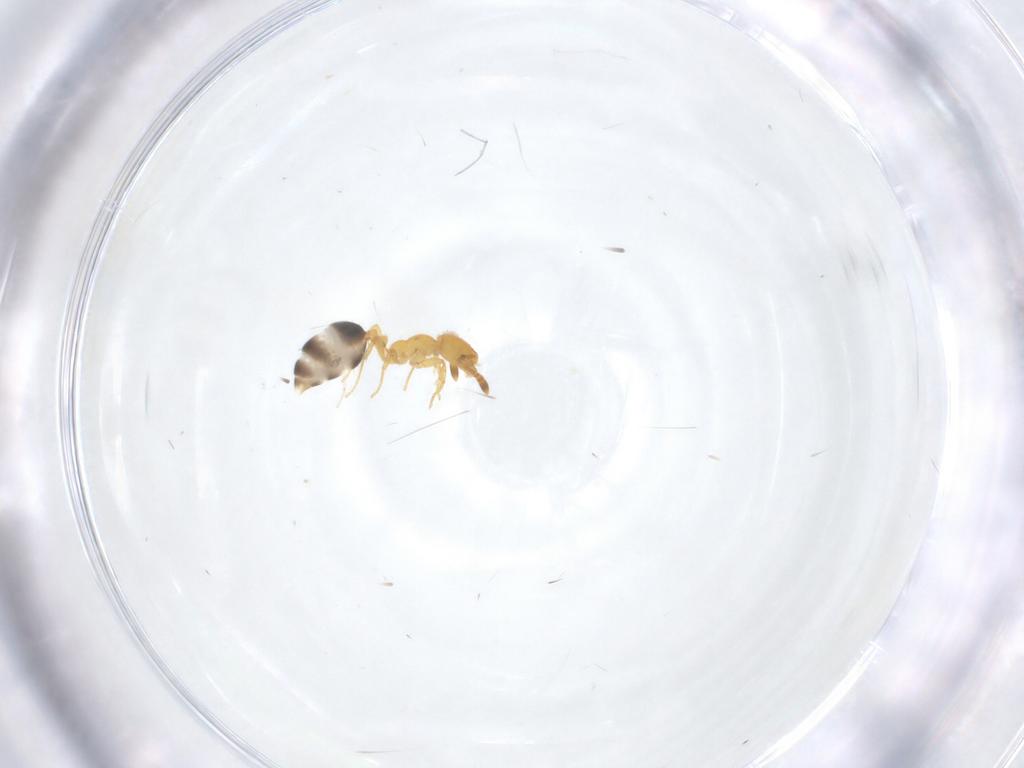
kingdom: Animalia
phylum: Arthropoda
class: Insecta
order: Hymenoptera
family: Formicidae
